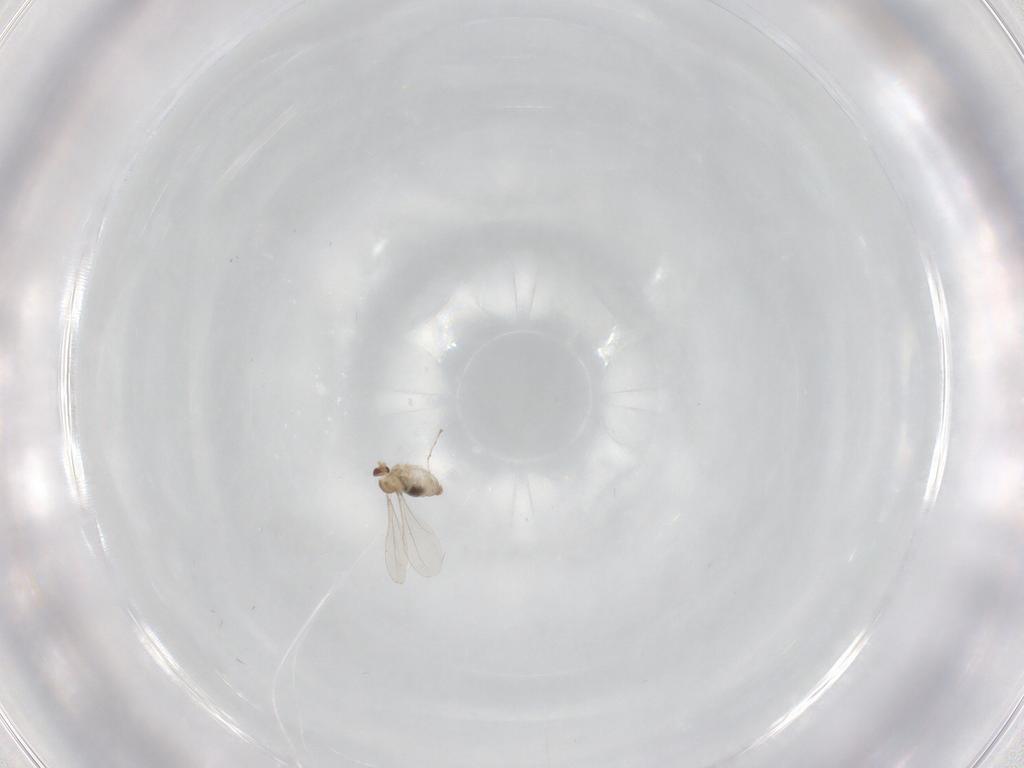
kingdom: Animalia
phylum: Arthropoda
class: Insecta
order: Diptera
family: Cecidomyiidae
